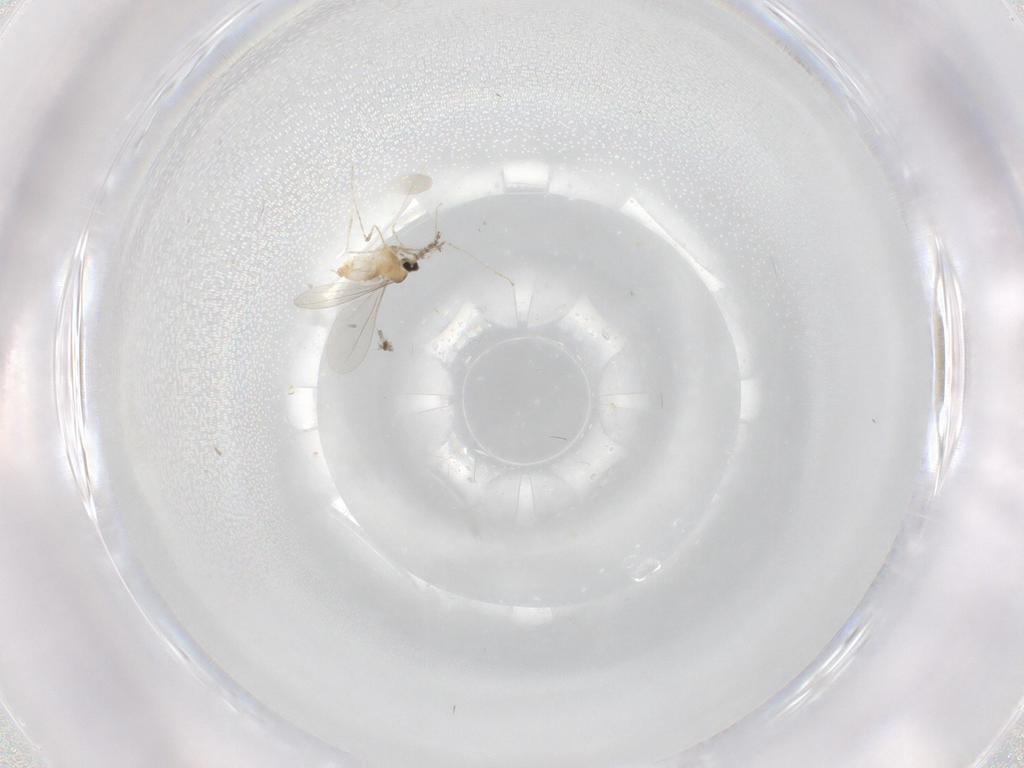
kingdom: Animalia
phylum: Arthropoda
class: Insecta
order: Diptera
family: Cecidomyiidae
